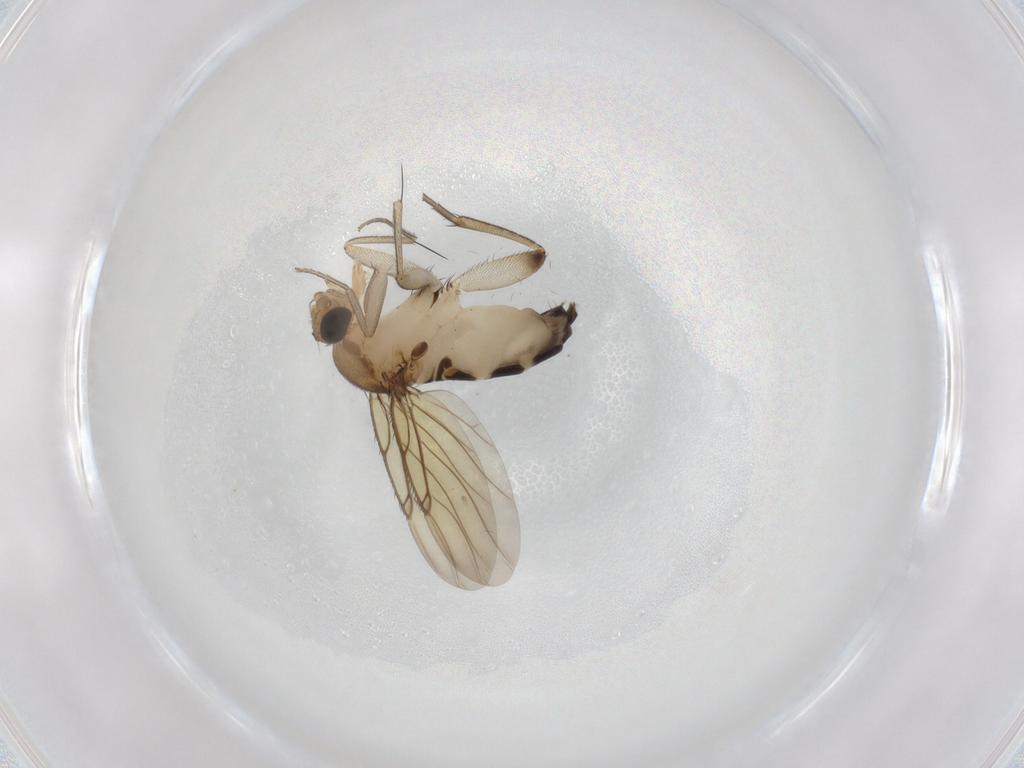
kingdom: Animalia
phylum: Arthropoda
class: Insecta
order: Diptera
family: Phoridae
